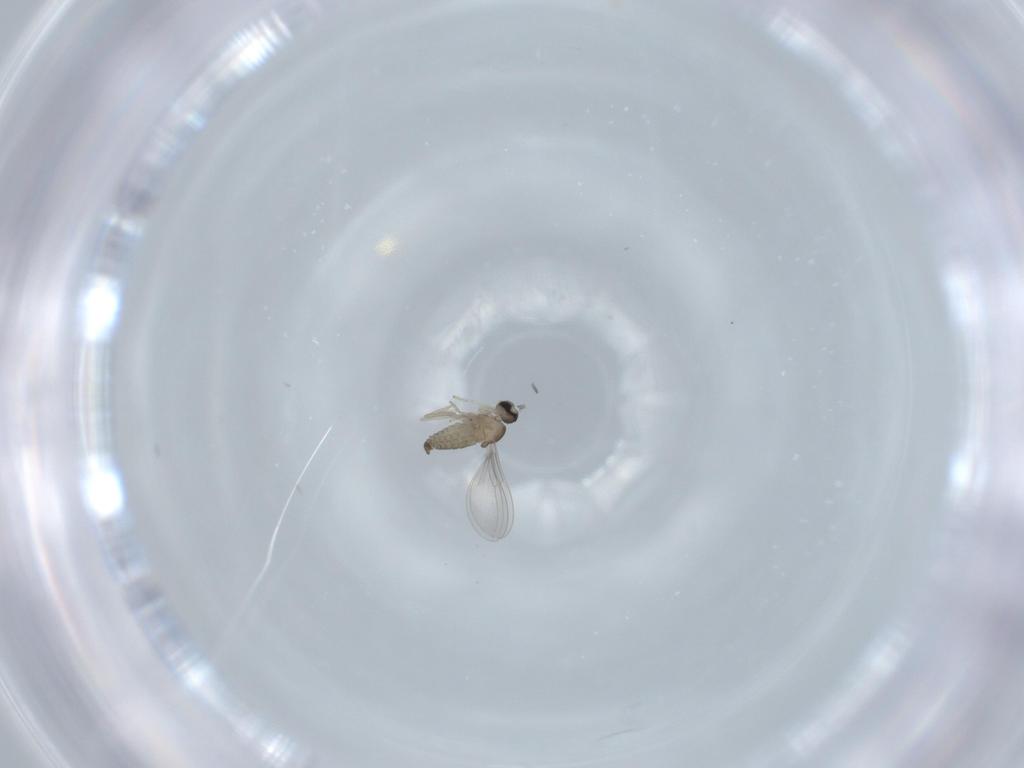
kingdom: Animalia
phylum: Arthropoda
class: Insecta
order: Diptera
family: Cecidomyiidae
